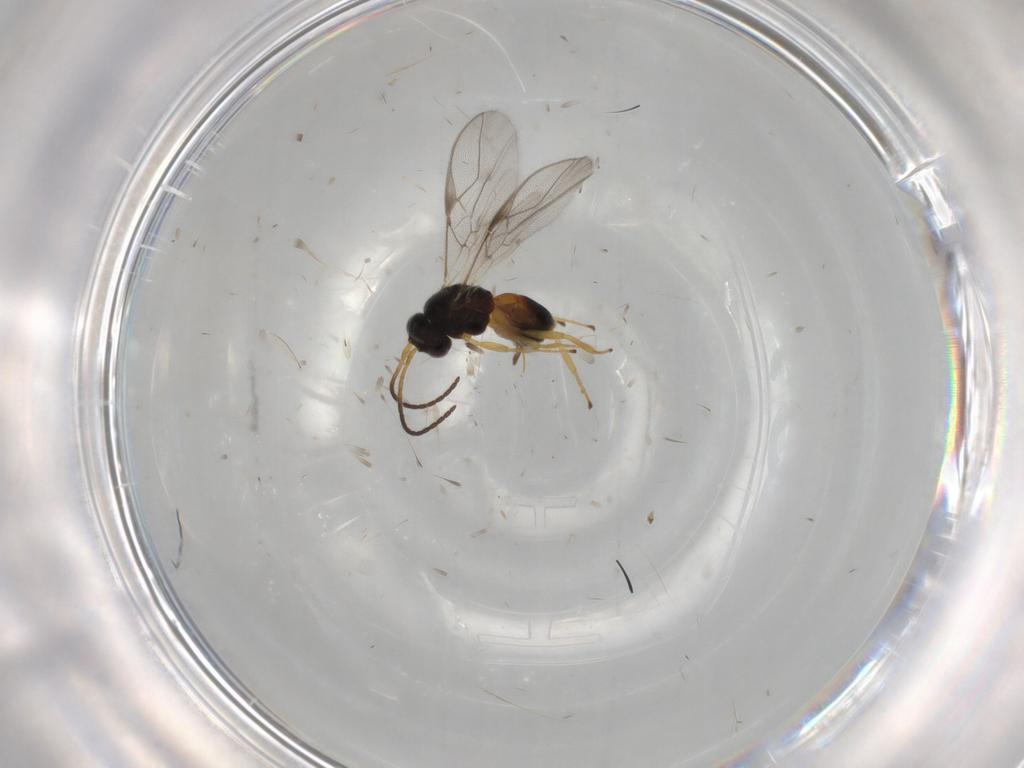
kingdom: Animalia
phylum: Arthropoda
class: Insecta
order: Hymenoptera
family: Braconidae
